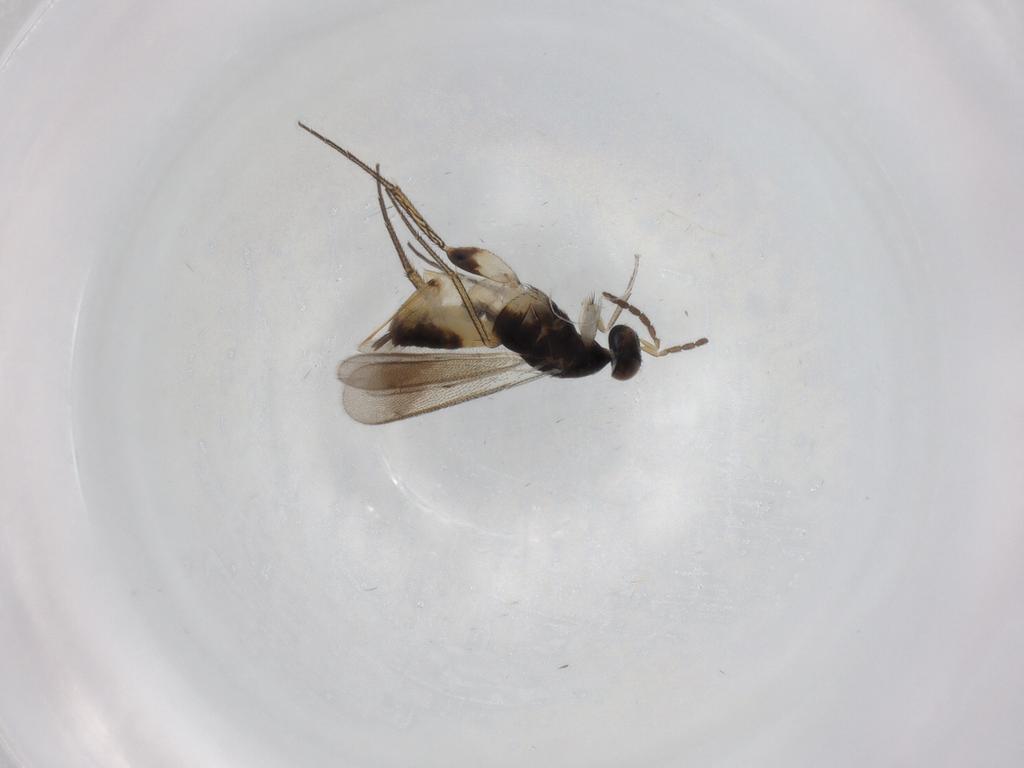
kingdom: Animalia
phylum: Arthropoda
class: Insecta
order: Hymenoptera
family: Eulophidae
